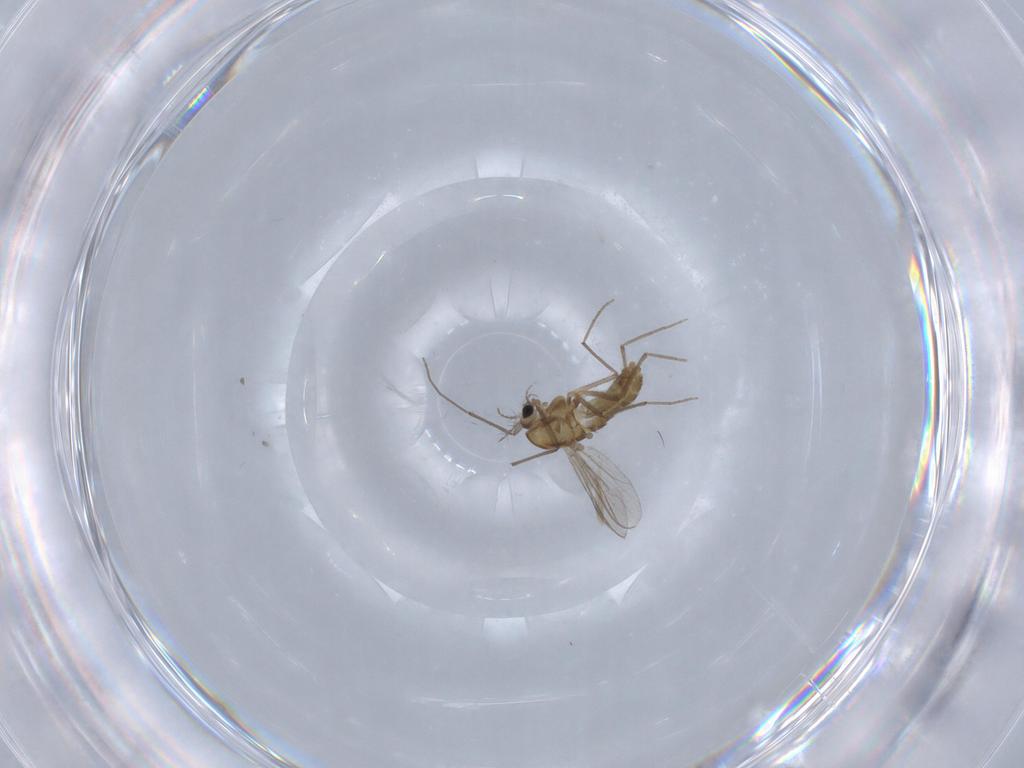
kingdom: Animalia
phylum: Arthropoda
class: Insecta
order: Diptera
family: Chironomidae
